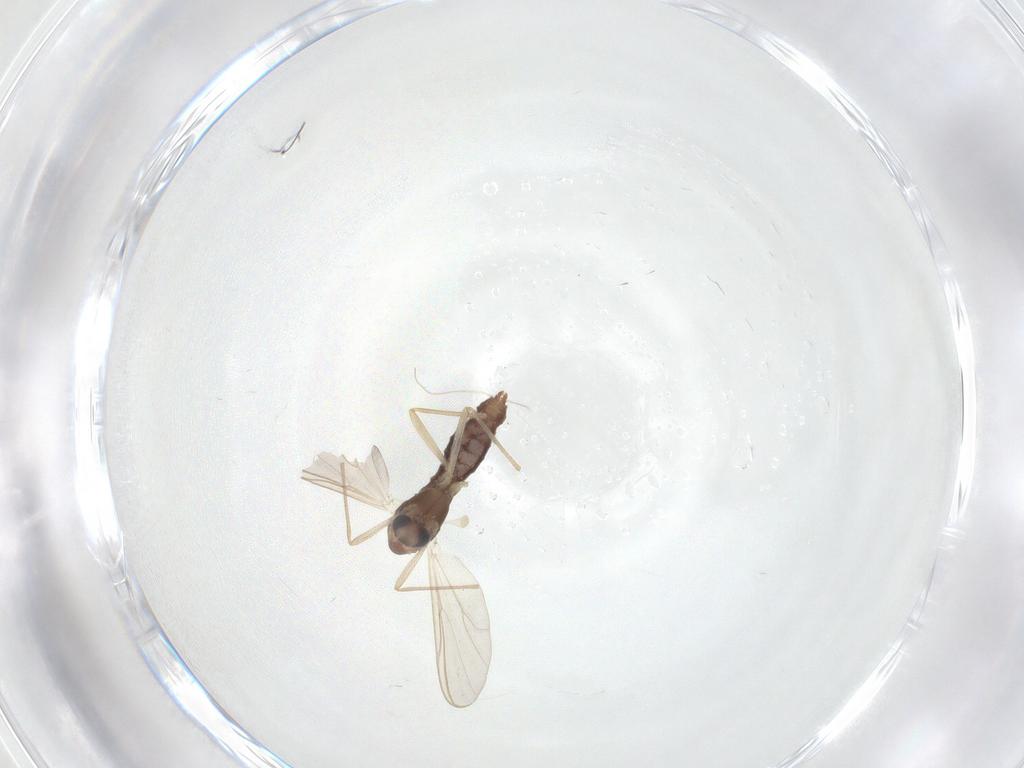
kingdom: Animalia
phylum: Arthropoda
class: Insecta
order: Diptera
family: Chironomidae
